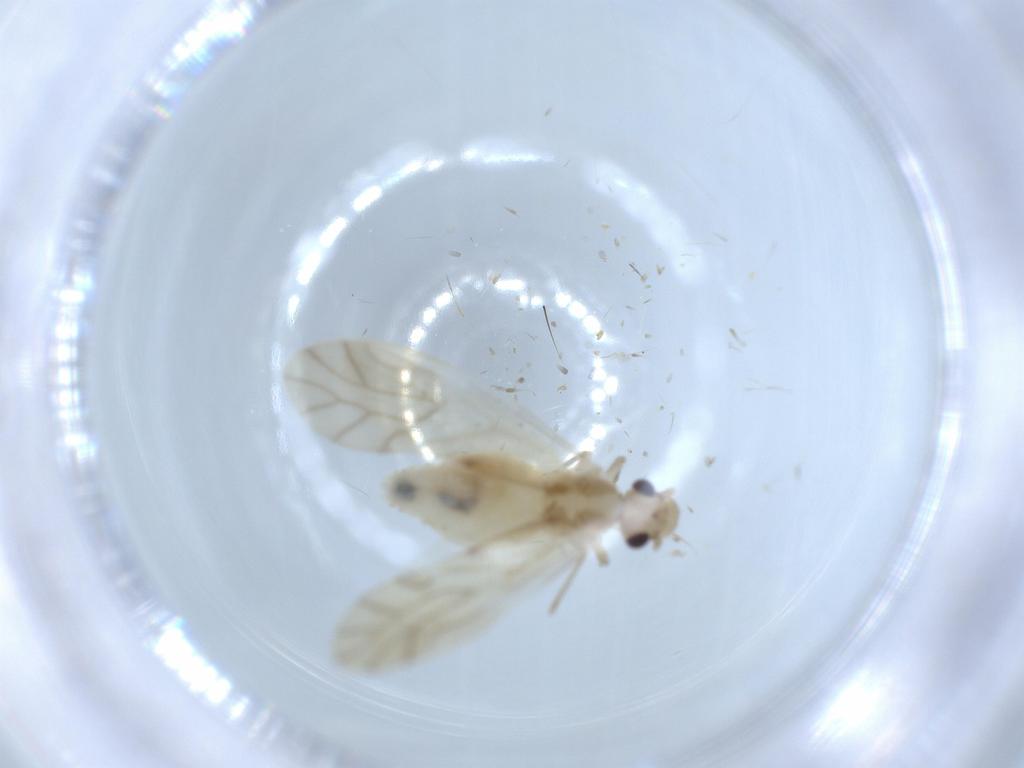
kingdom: Animalia
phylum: Arthropoda
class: Insecta
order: Psocodea
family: Caeciliusidae
